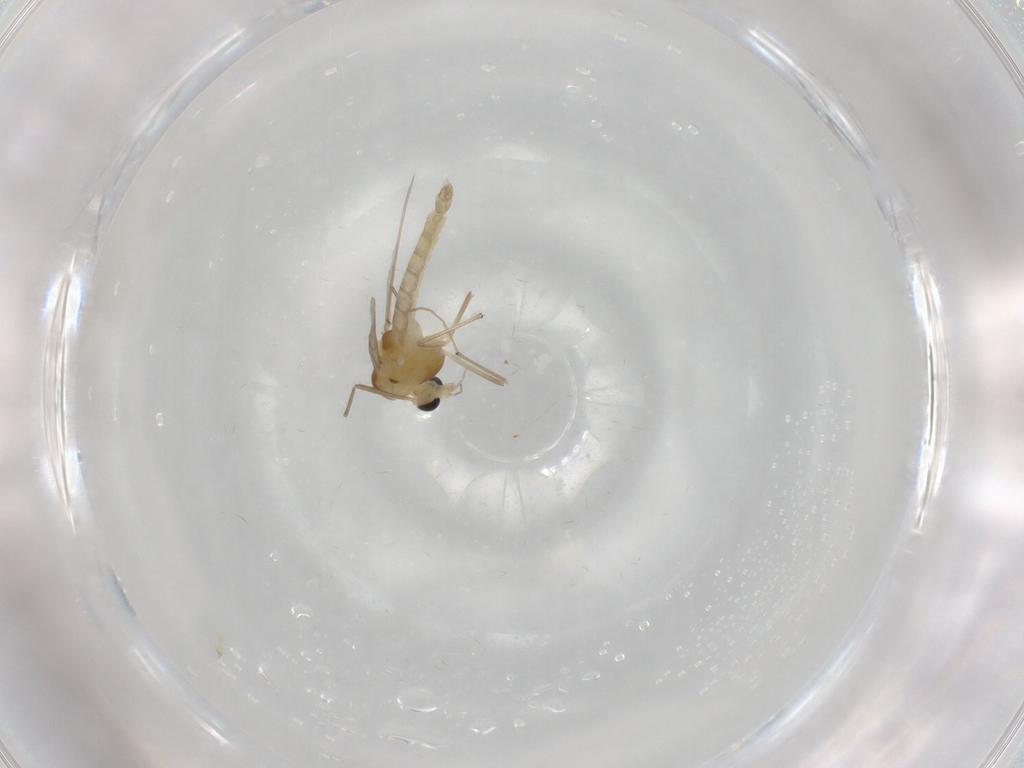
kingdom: Animalia
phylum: Arthropoda
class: Insecta
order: Diptera
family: Chironomidae
